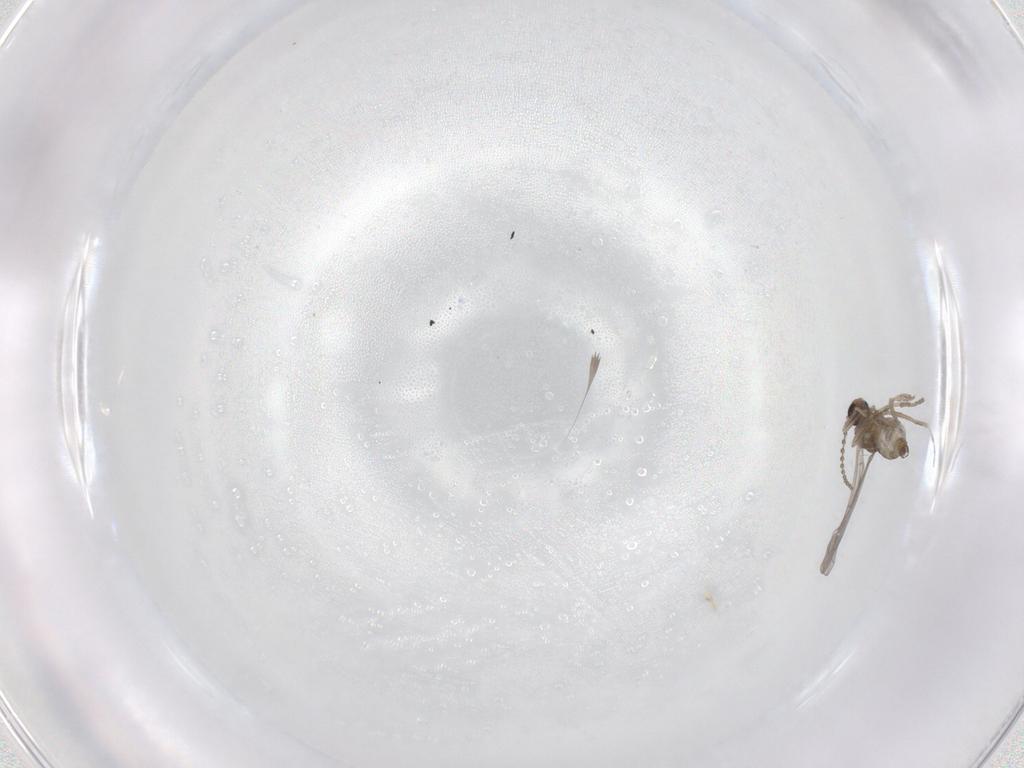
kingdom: Animalia
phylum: Arthropoda
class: Insecta
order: Diptera
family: Cecidomyiidae
